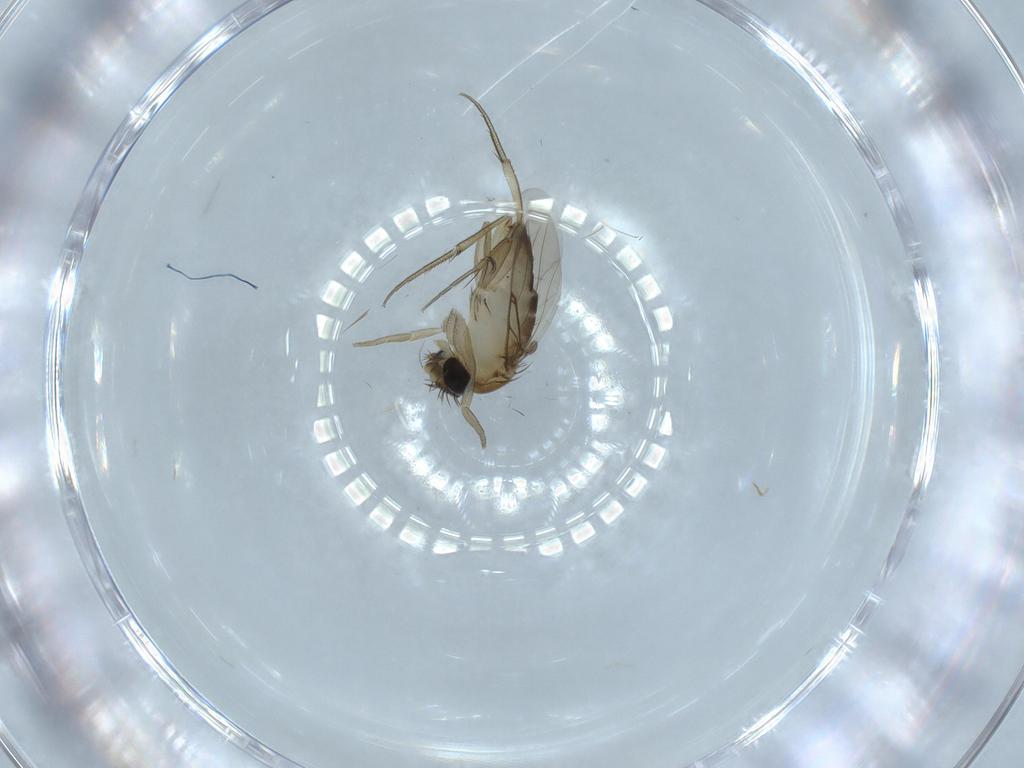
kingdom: Animalia
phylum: Arthropoda
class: Insecta
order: Diptera
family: Phoridae
